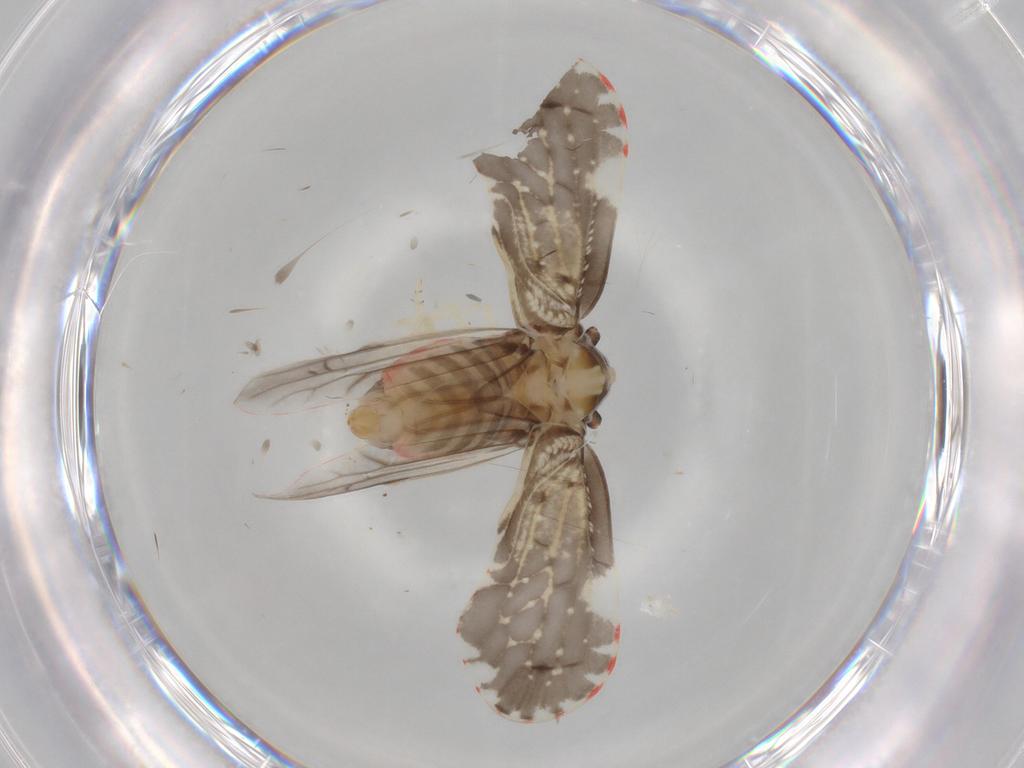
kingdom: Animalia
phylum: Arthropoda
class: Insecta
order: Hemiptera
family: Derbidae
